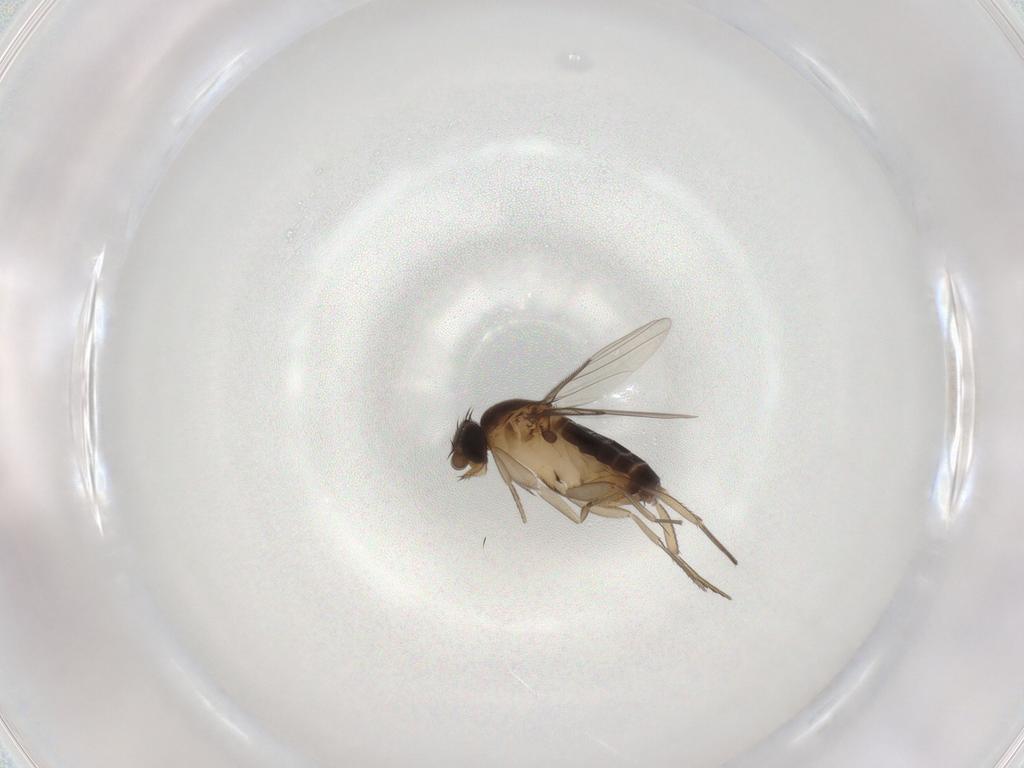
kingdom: Animalia
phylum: Arthropoda
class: Insecta
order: Diptera
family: Phoridae
